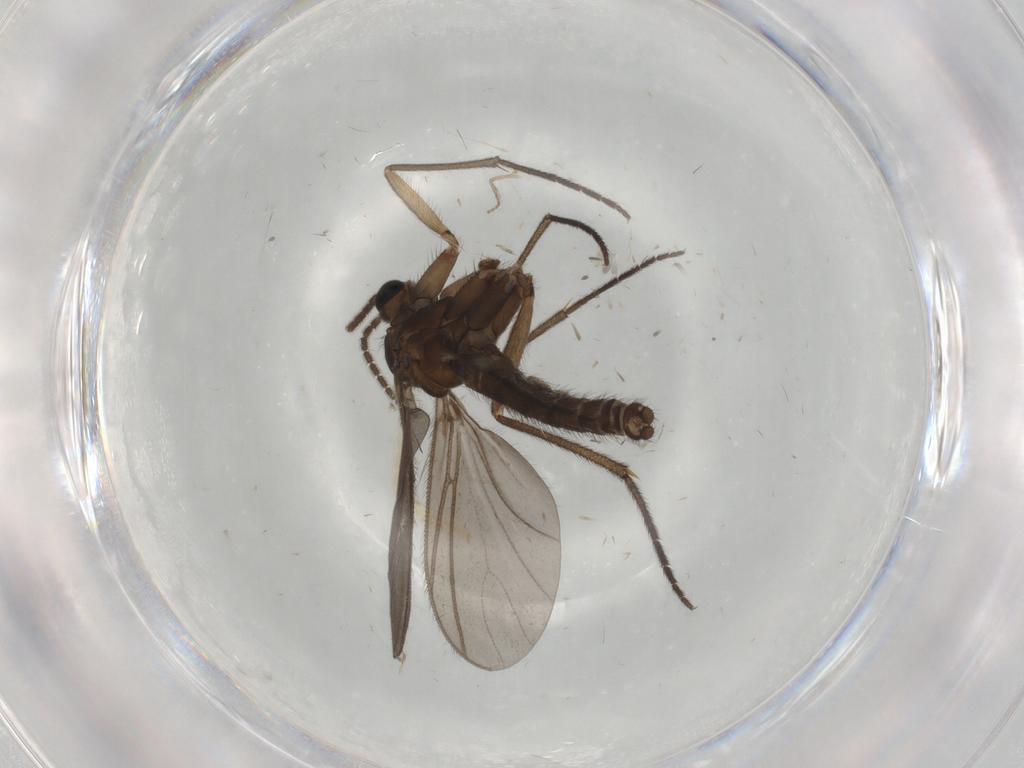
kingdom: Animalia
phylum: Arthropoda
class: Insecta
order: Diptera
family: Sciaridae
